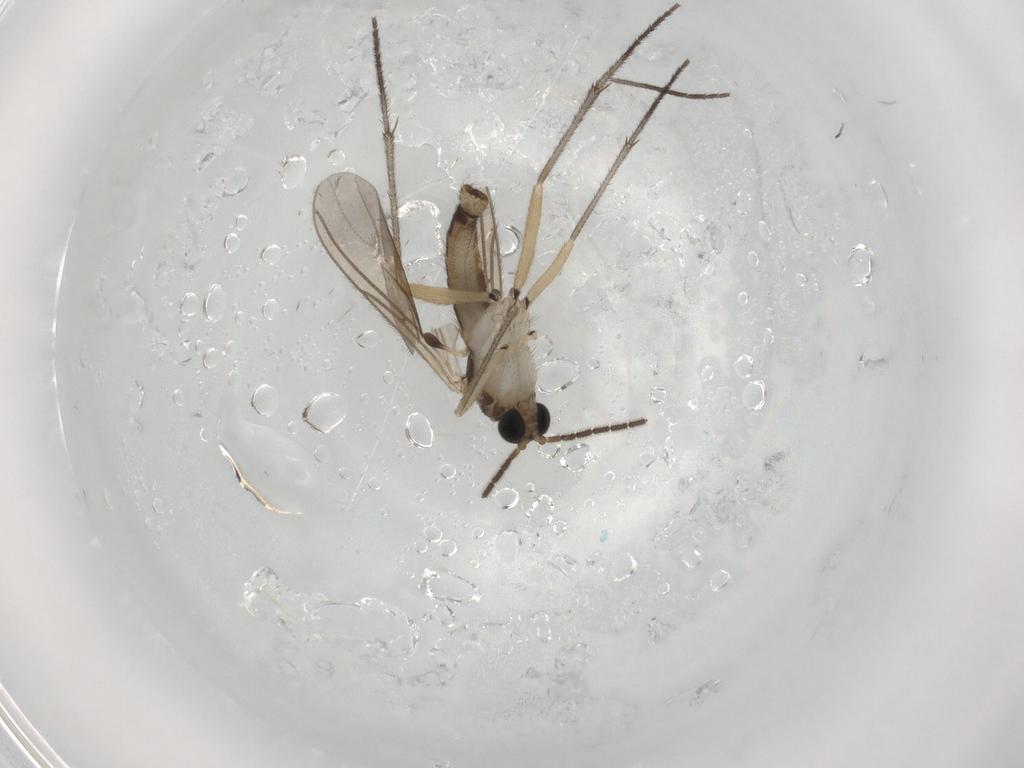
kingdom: Animalia
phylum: Arthropoda
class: Insecta
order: Diptera
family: Sciaridae
